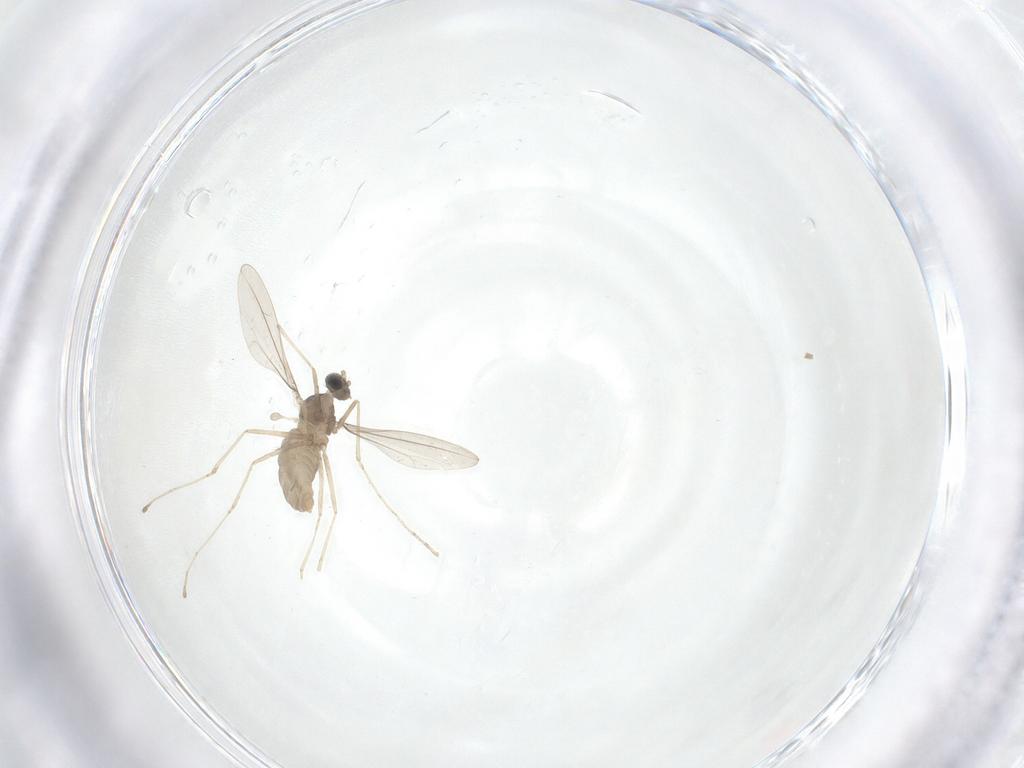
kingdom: Animalia
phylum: Arthropoda
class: Insecta
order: Diptera
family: Cecidomyiidae
